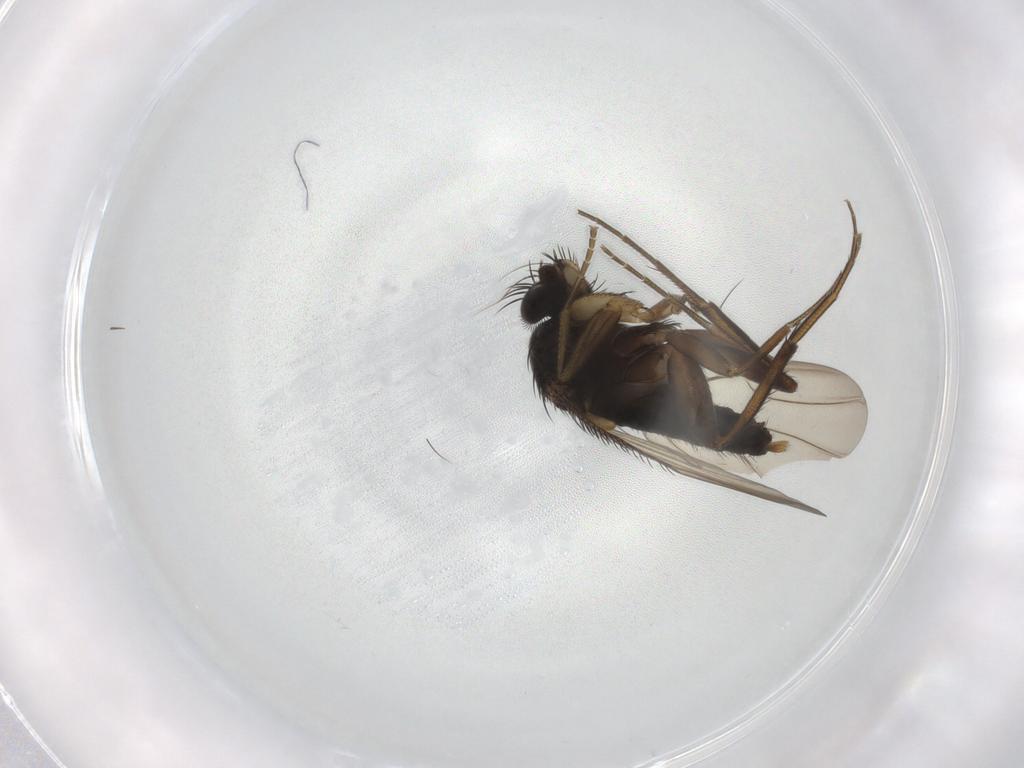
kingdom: Animalia
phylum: Arthropoda
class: Insecta
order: Diptera
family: Phoridae
